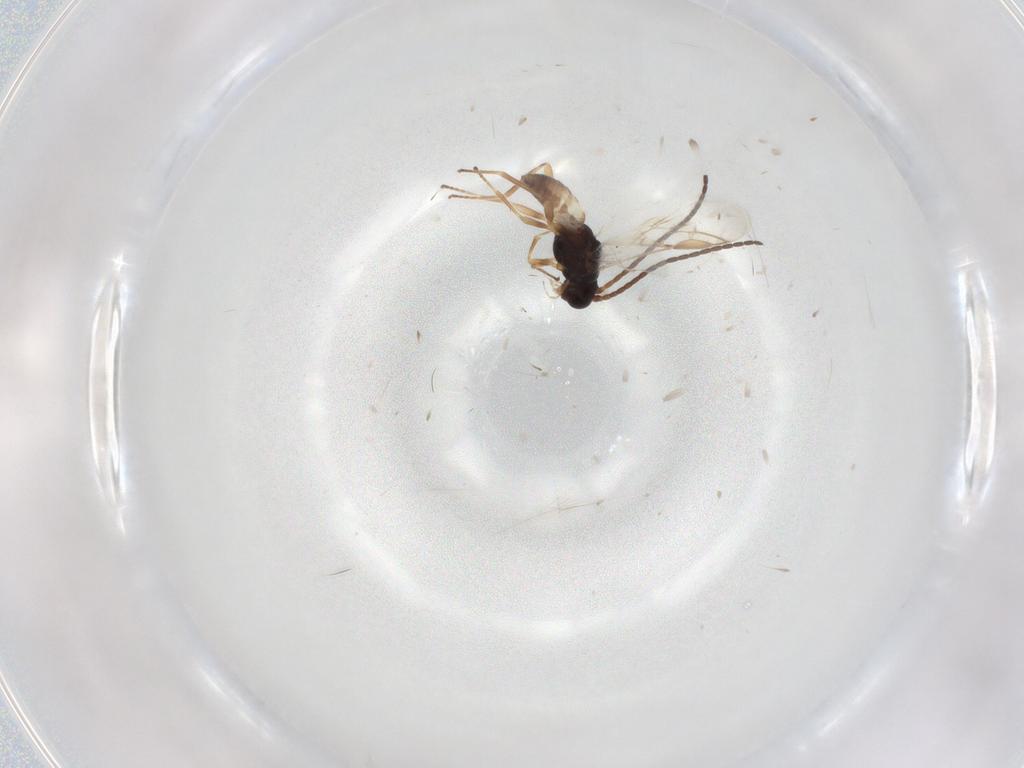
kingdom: Animalia
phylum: Arthropoda
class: Insecta
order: Hymenoptera
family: Braconidae
